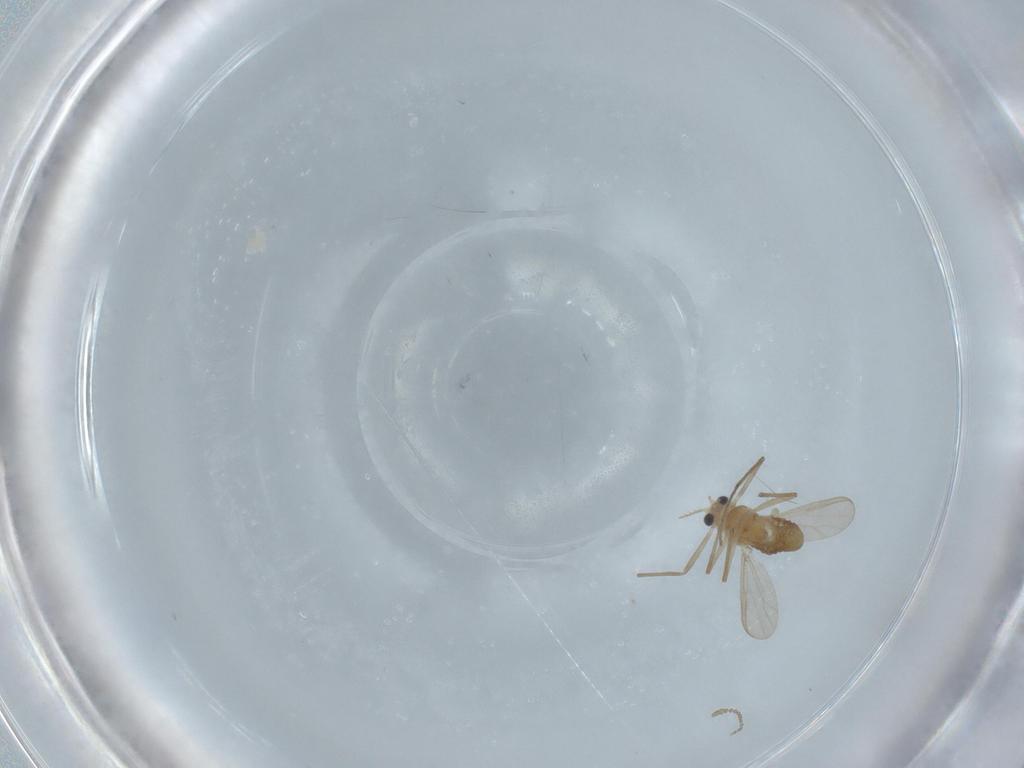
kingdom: Animalia
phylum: Arthropoda
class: Insecta
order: Diptera
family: Chironomidae
